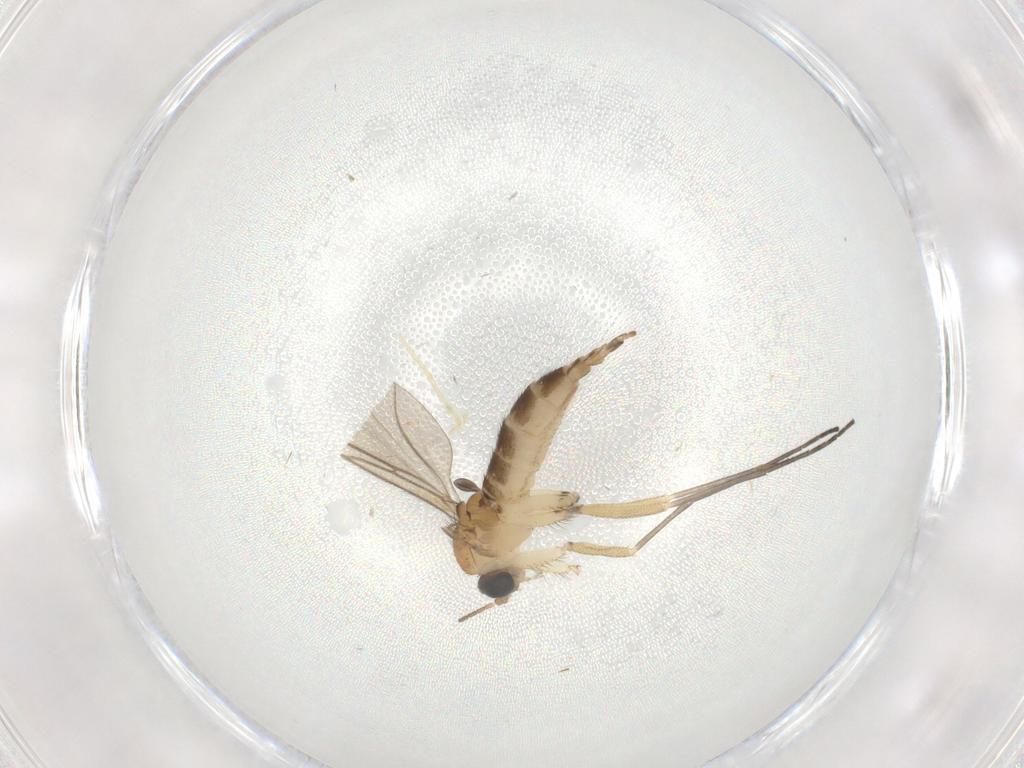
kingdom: Animalia
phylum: Arthropoda
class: Insecta
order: Diptera
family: Sciaridae
